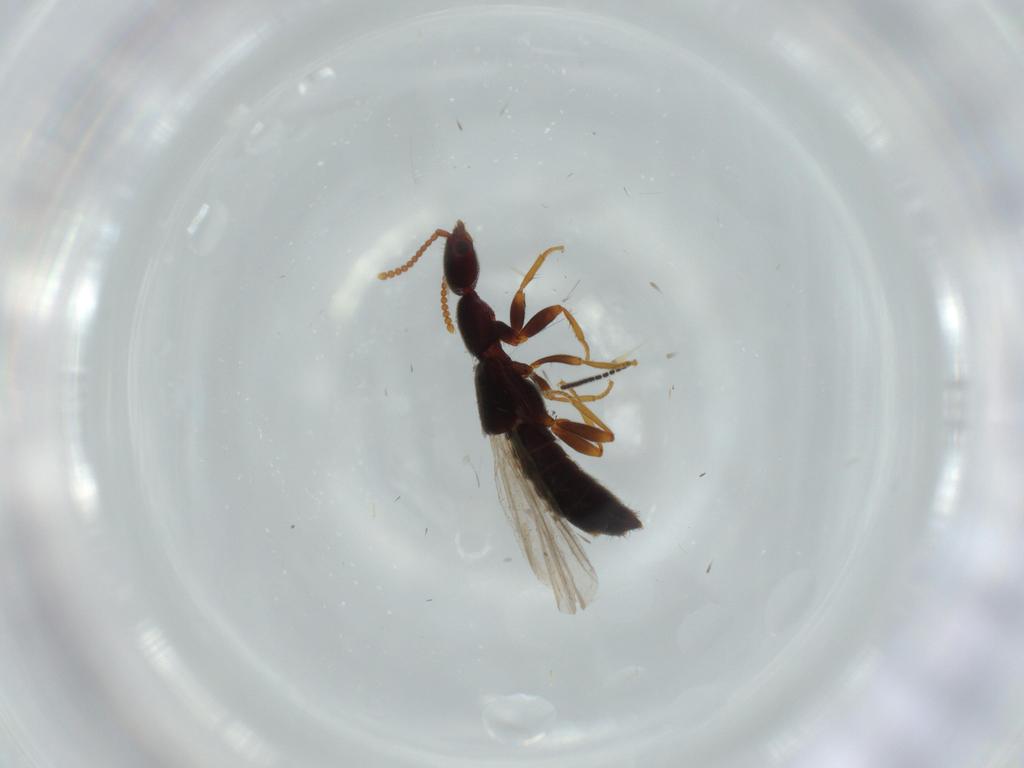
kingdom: Animalia
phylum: Arthropoda
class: Insecta
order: Coleoptera
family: Staphylinidae
